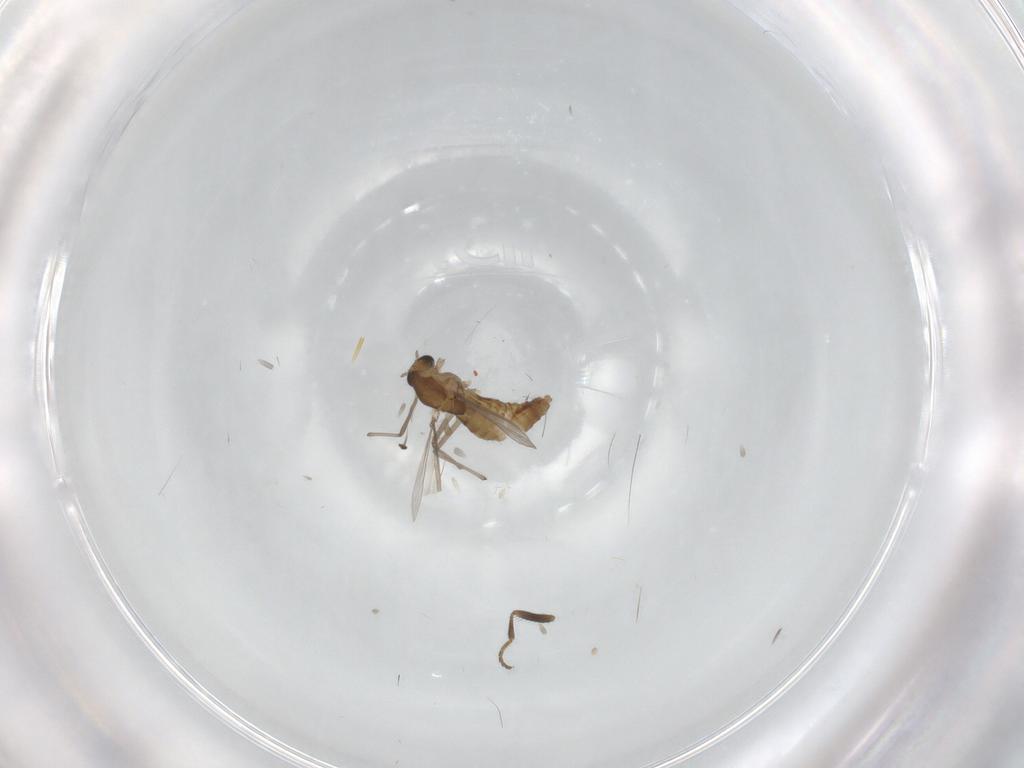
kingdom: Animalia
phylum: Arthropoda
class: Insecta
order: Diptera
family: Chironomidae
